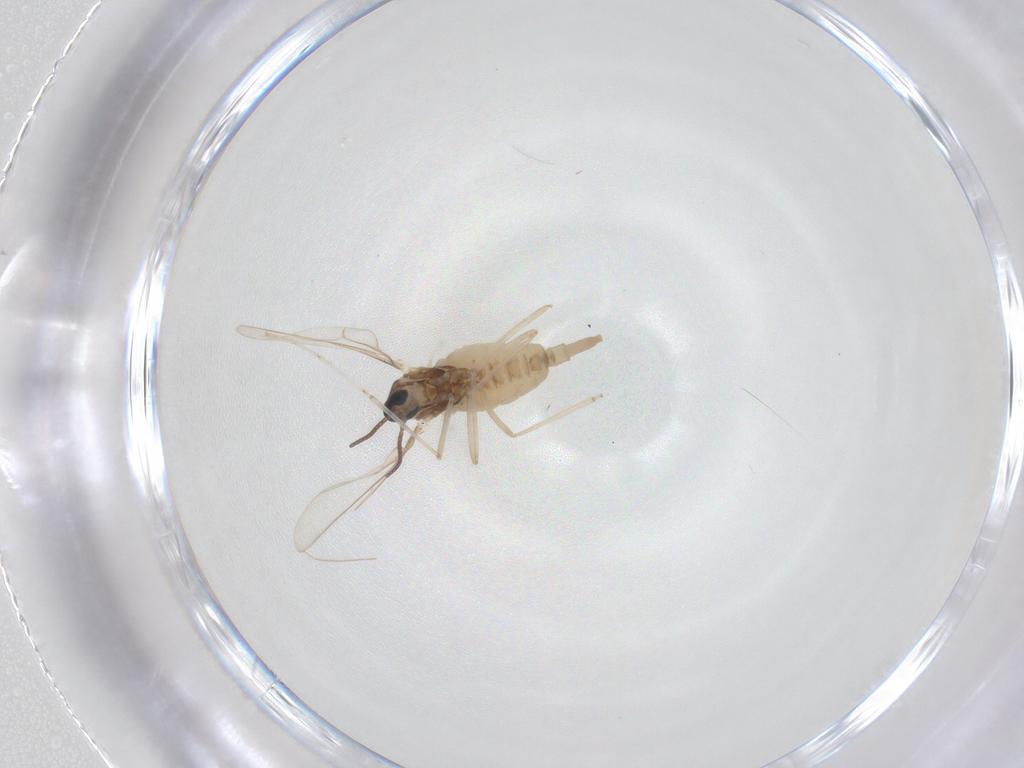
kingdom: Animalia
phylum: Arthropoda
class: Insecta
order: Diptera
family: Cecidomyiidae
